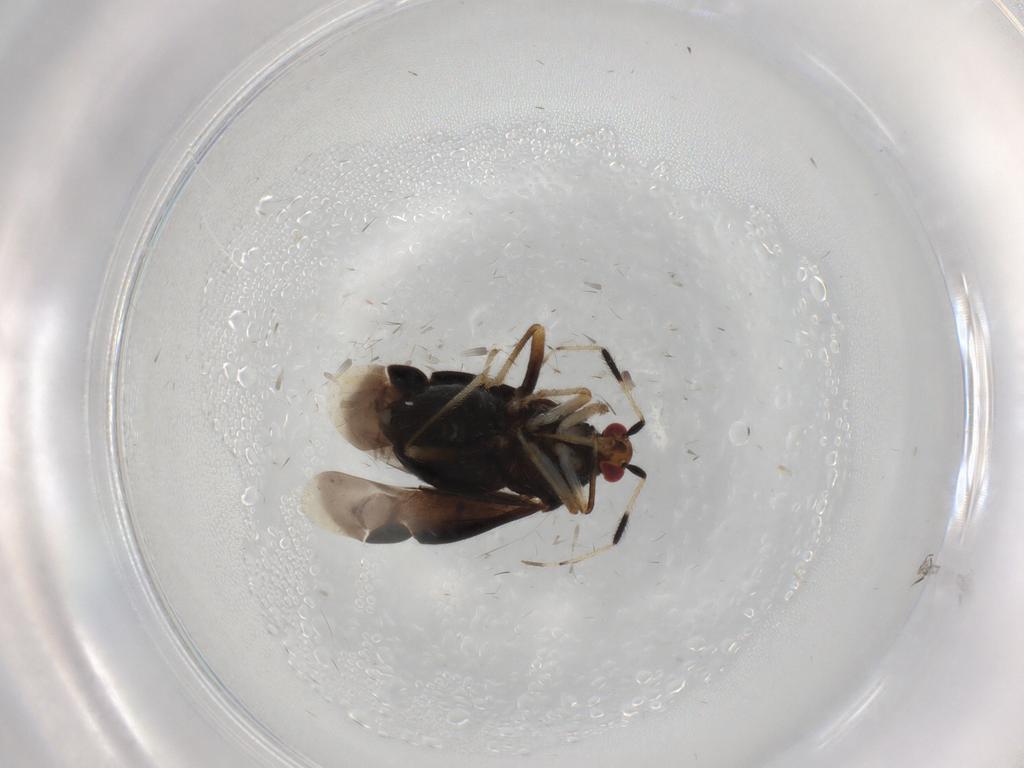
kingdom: Animalia
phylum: Arthropoda
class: Insecta
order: Hemiptera
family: Miridae
